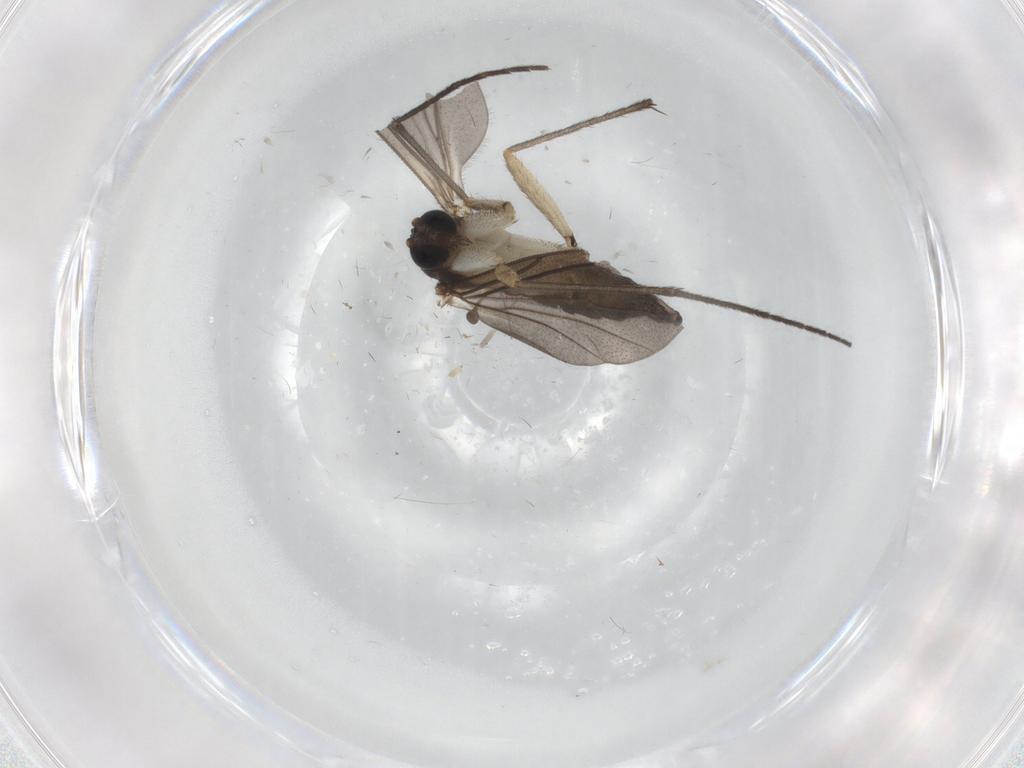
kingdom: Animalia
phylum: Arthropoda
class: Insecta
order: Diptera
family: Sciaridae
